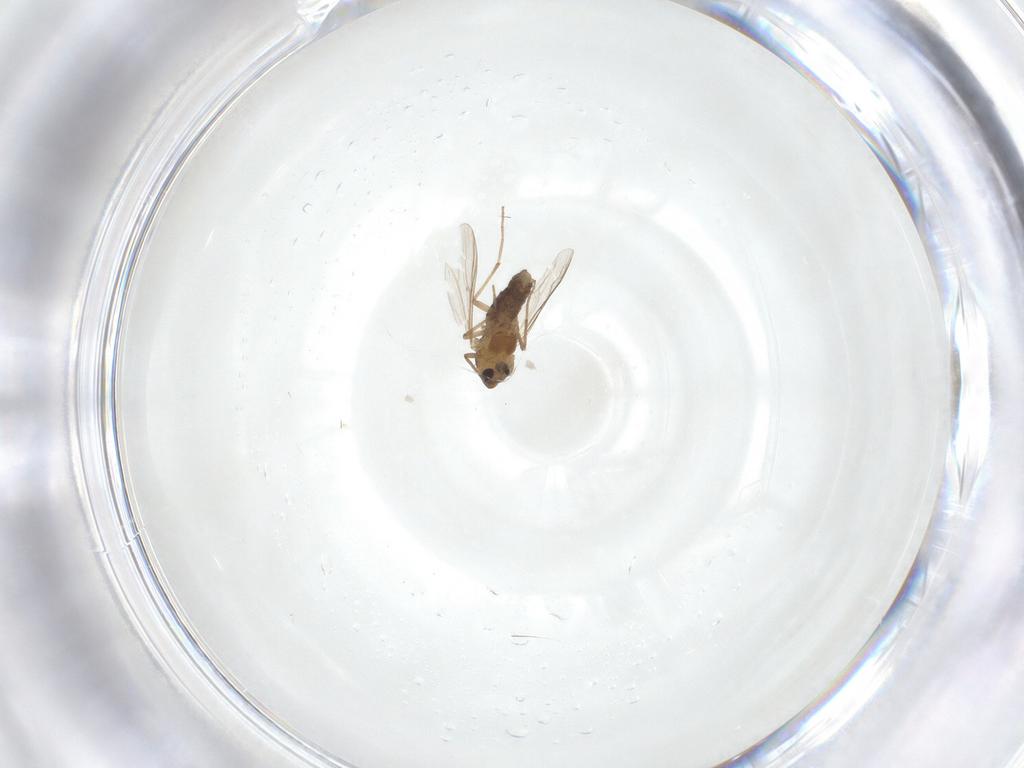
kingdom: Animalia
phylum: Arthropoda
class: Insecta
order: Diptera
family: Chironomidae
